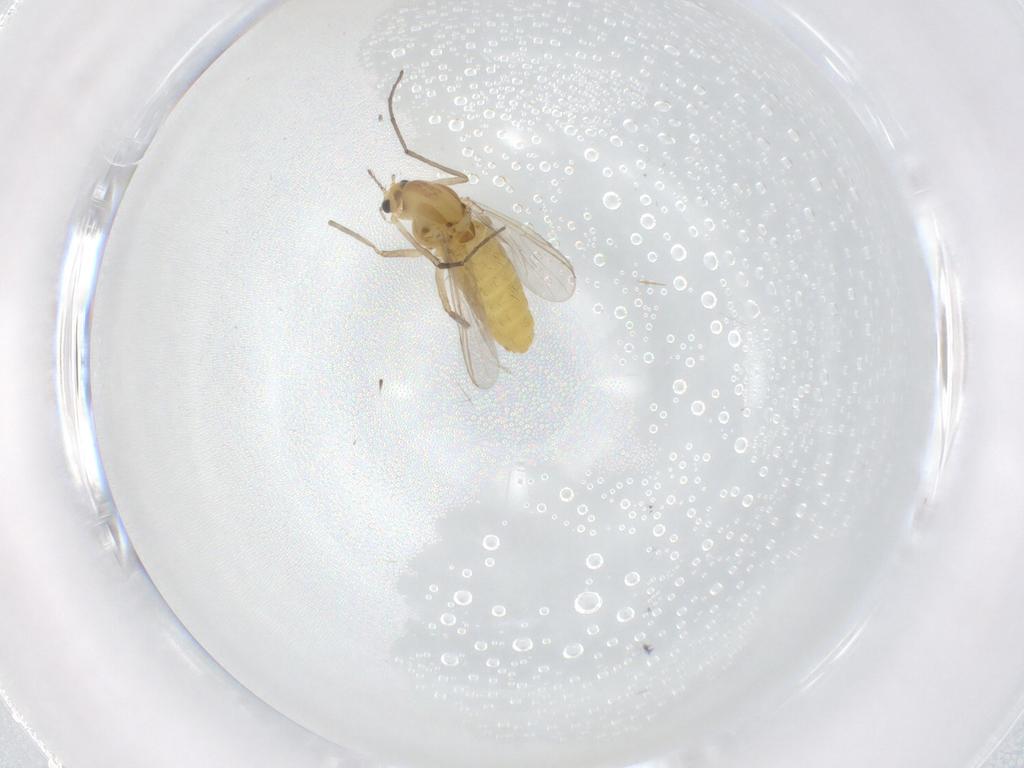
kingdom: Animalia
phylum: Arthropoda
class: Insecta
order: Diptera
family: Chironomidae
